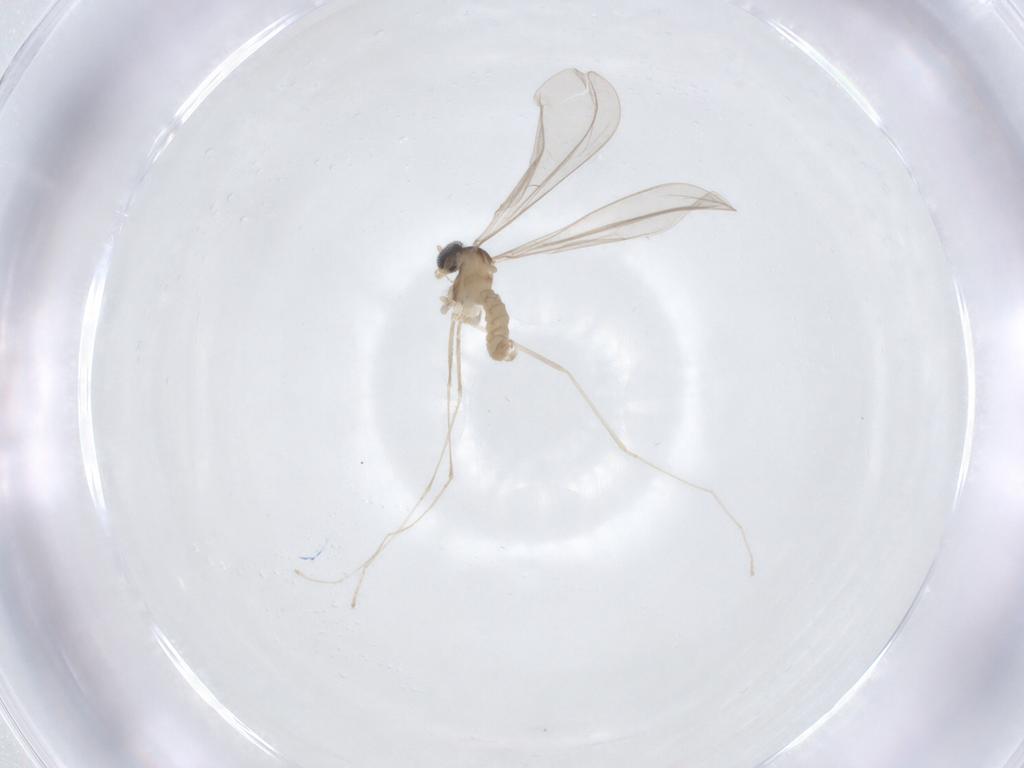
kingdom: Animalia
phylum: Arthropoda
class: Insecta
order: Diptera
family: Cecidomyiidae
